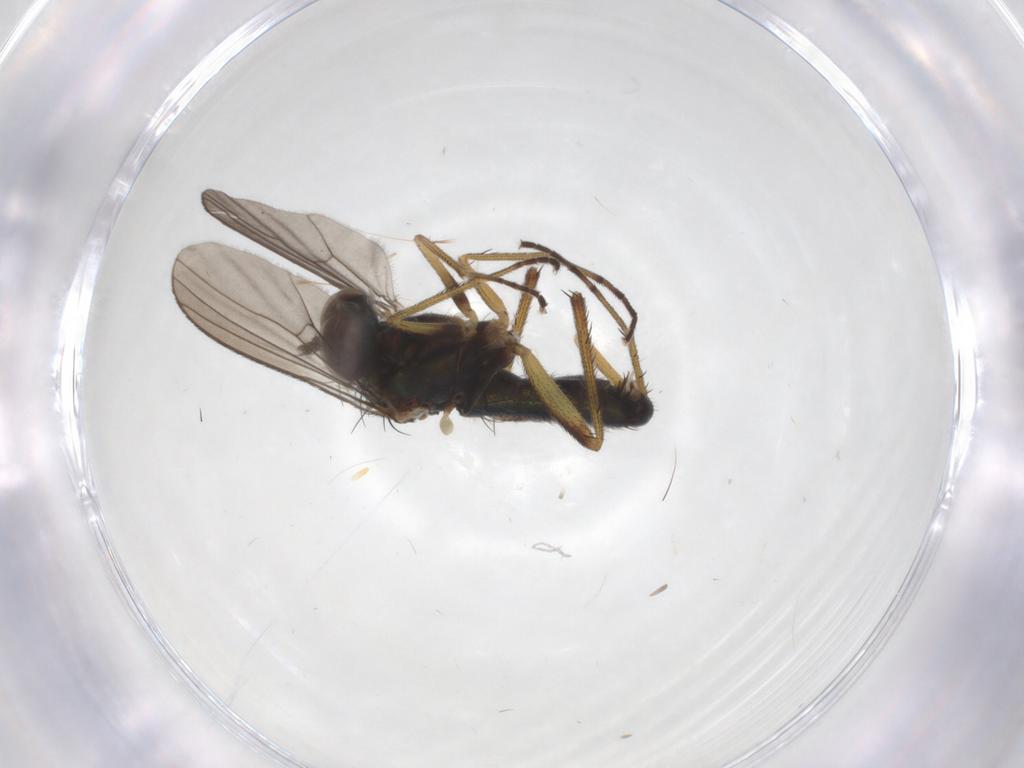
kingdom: Animalia
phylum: Arthropoda
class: Insecta
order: Diptera
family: Dolichopodidae
